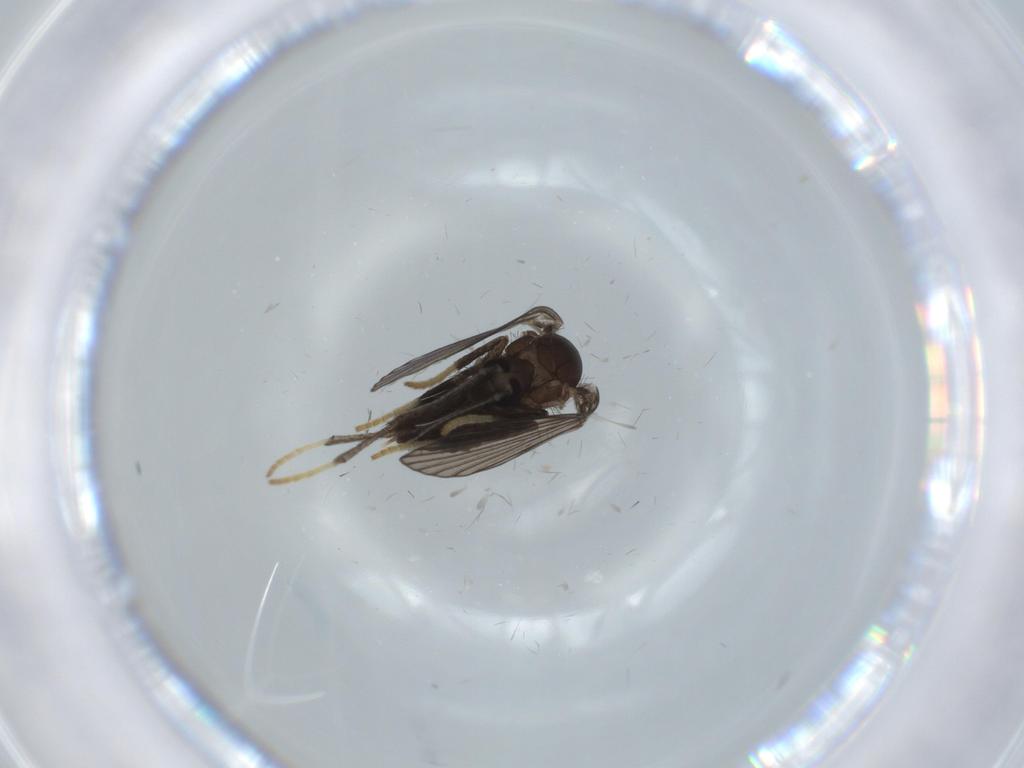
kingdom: Animalia
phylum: Arthropoda
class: Insecta
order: Diptera
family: Psychodidae
